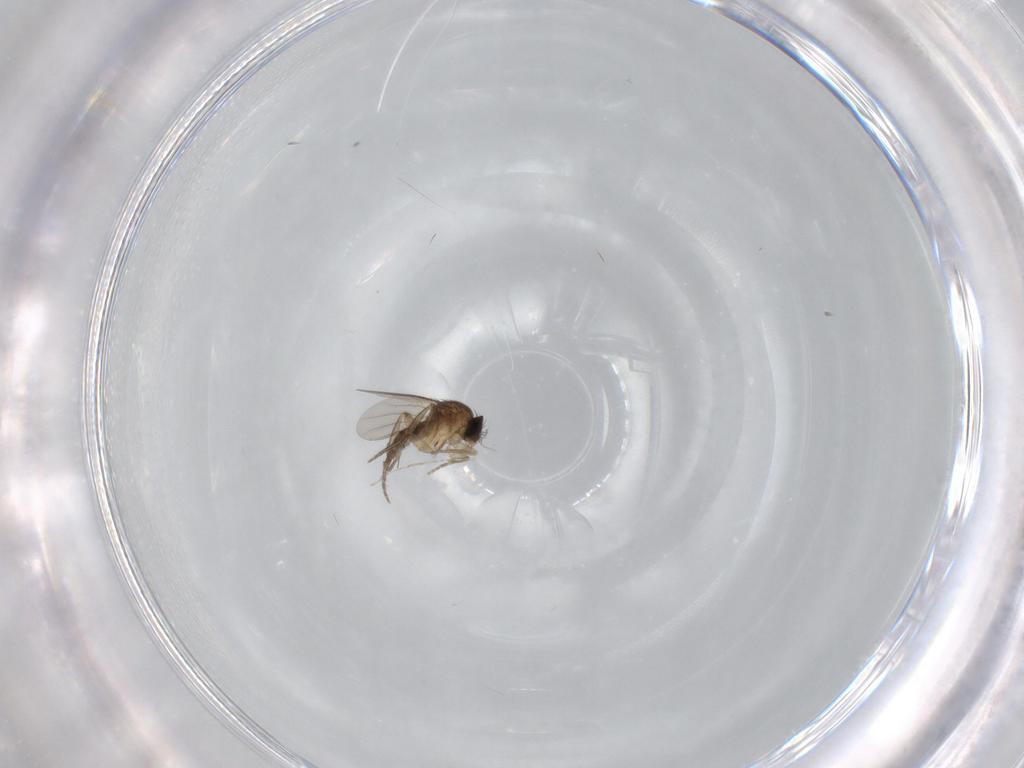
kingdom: Animalia
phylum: Arthropoda
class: Insecta
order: Diptera
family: Phoridae
